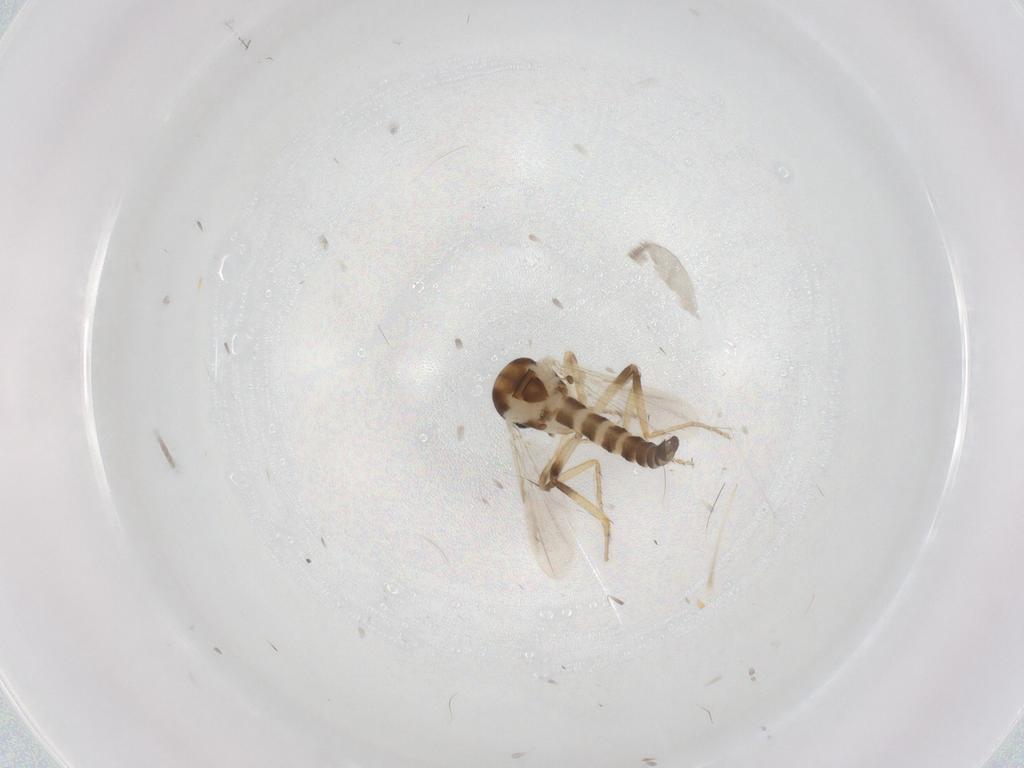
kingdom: Animalia
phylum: Arthropoda
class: Insecta
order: Diptera
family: Ceratopogonidae
